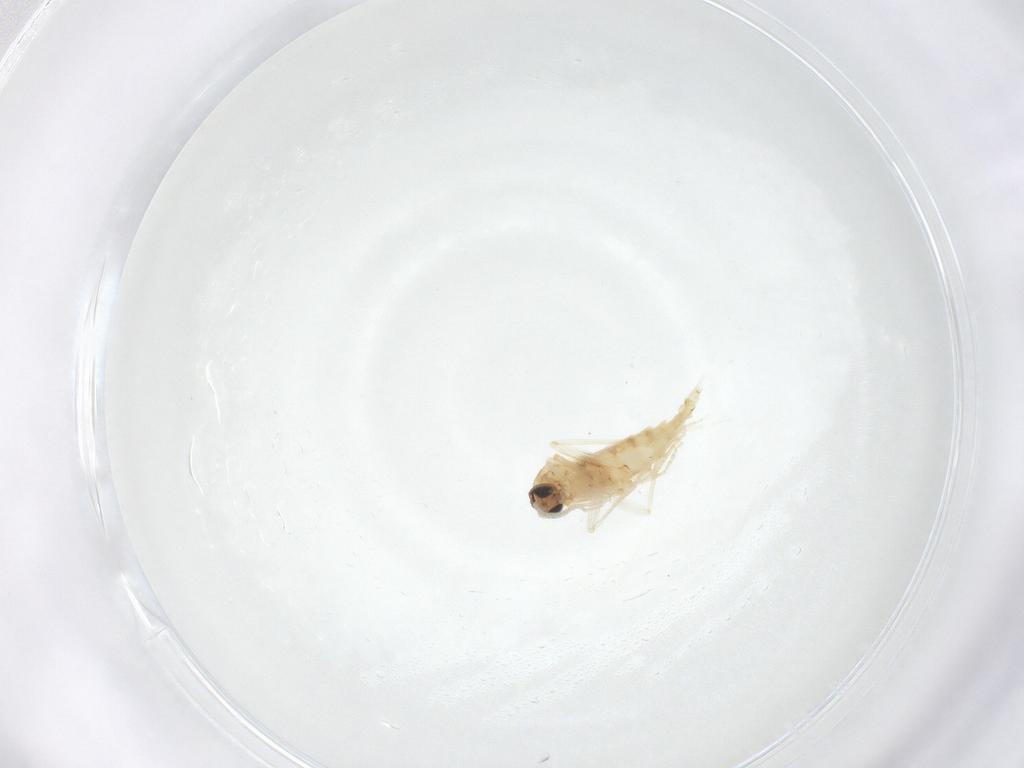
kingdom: Animalia
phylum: Arthropoda
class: Insecta
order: Diptera
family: Sciaridae
